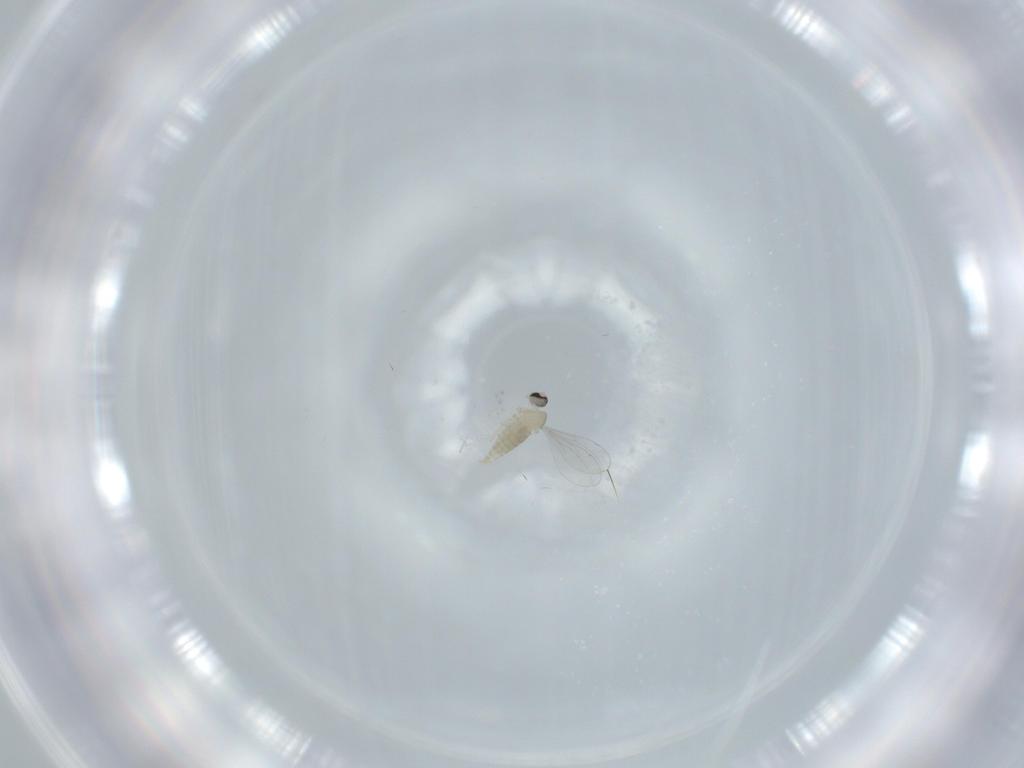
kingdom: Animalia
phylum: Arthropoda
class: Insecta
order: Diptera
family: Cecidomyiidae
